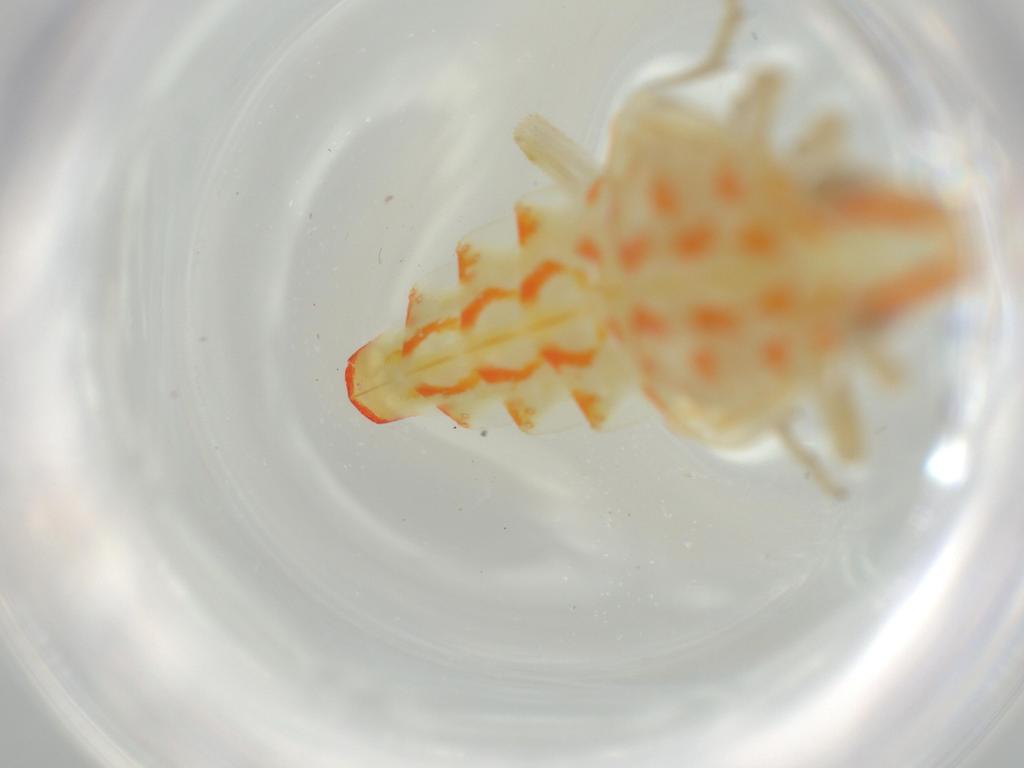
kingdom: Animalia
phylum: Arthropoda
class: Insecta
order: Hemiptera
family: Tropiduchidae
